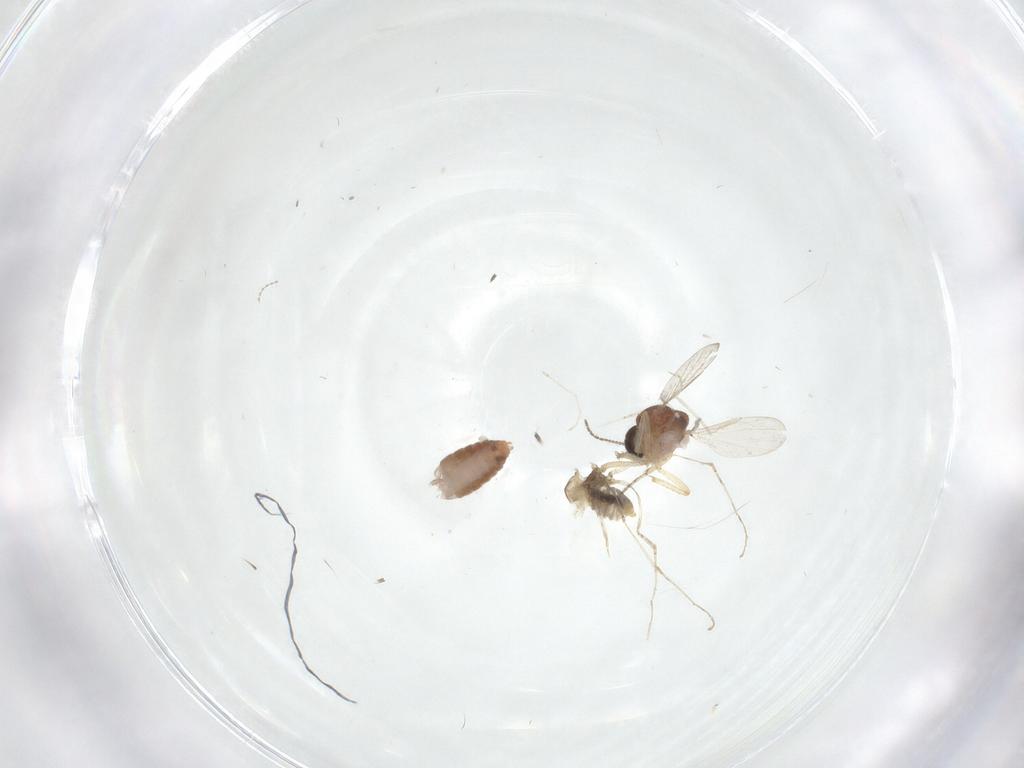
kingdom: Animalia
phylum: Arthropoda
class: Insecta
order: Diptera
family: Ceratopogonidae
